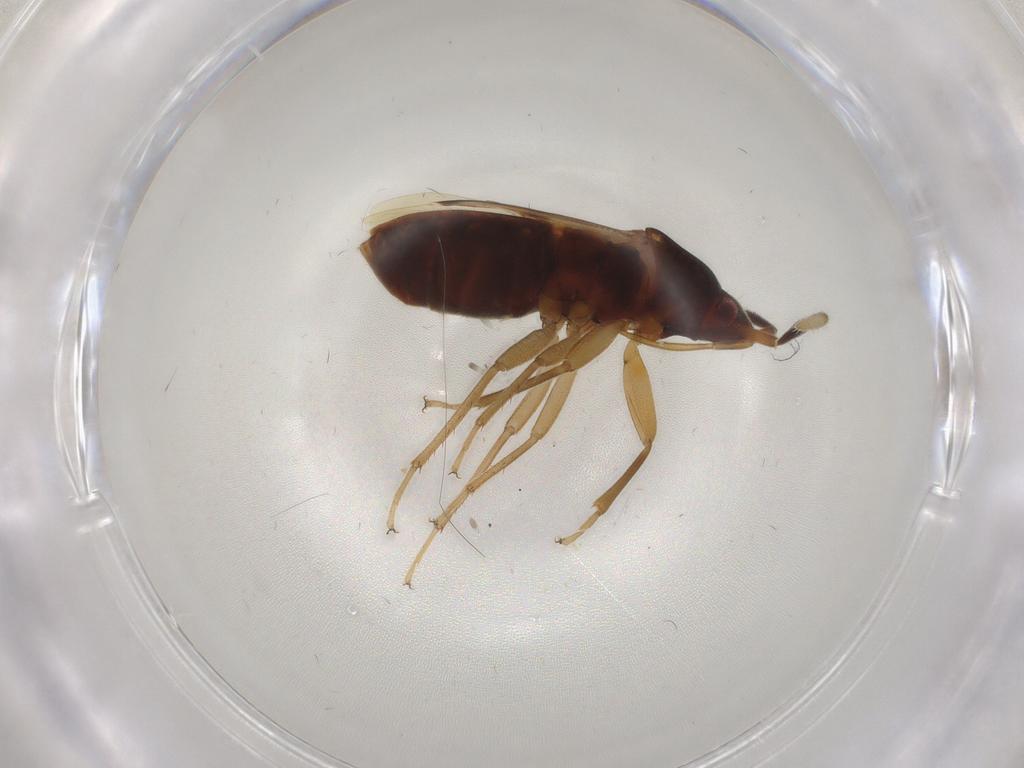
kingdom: Animalia
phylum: Arthropoda
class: Insecta
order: Hemiptera
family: Rhyparochromidae
